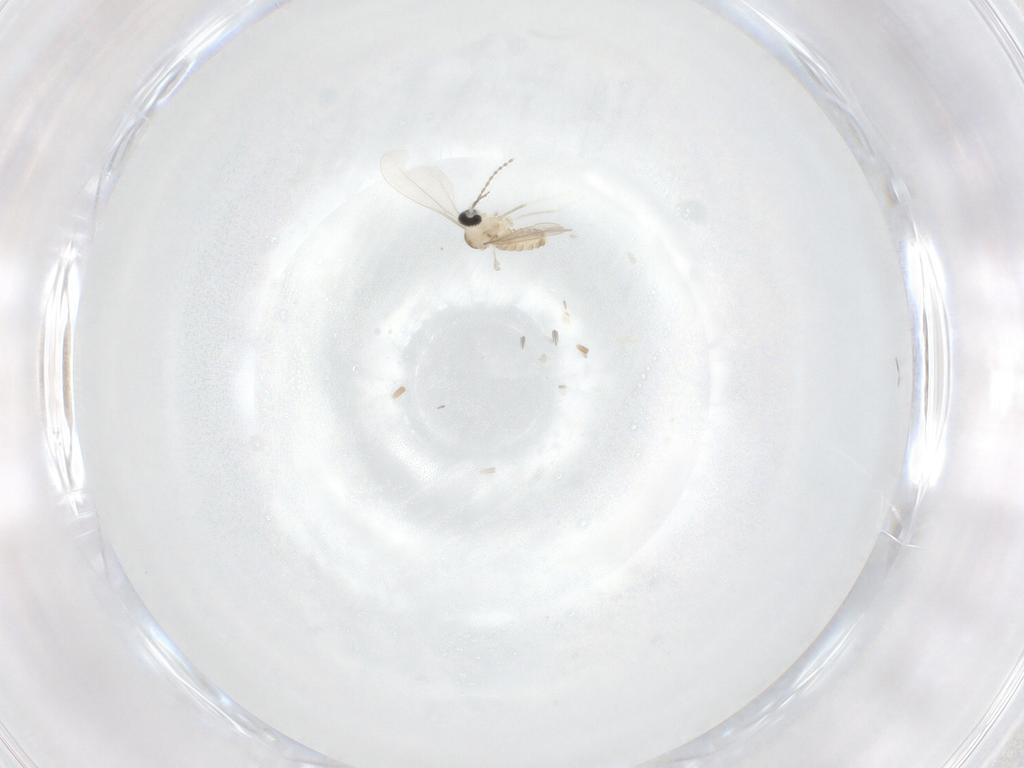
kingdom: Animalia
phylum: Arthropoda
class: Insecta
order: Diptera
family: Cecidomyiidae
